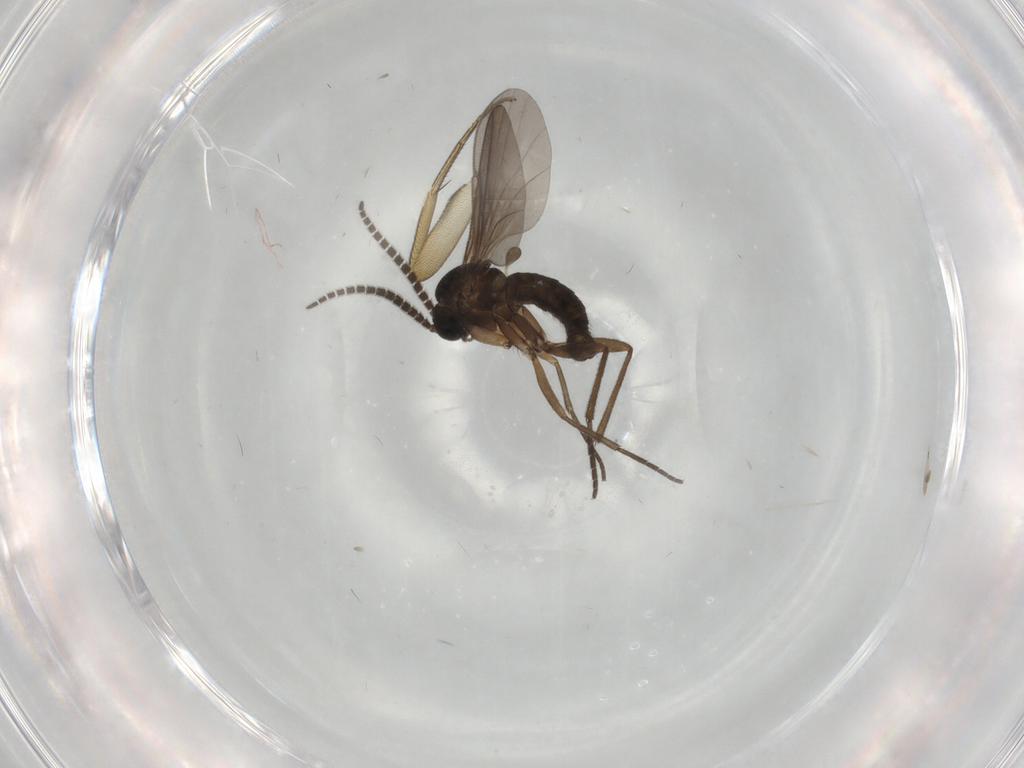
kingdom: Animalia
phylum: Arthropoda
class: Insecta
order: Diptera
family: Sciaridae
